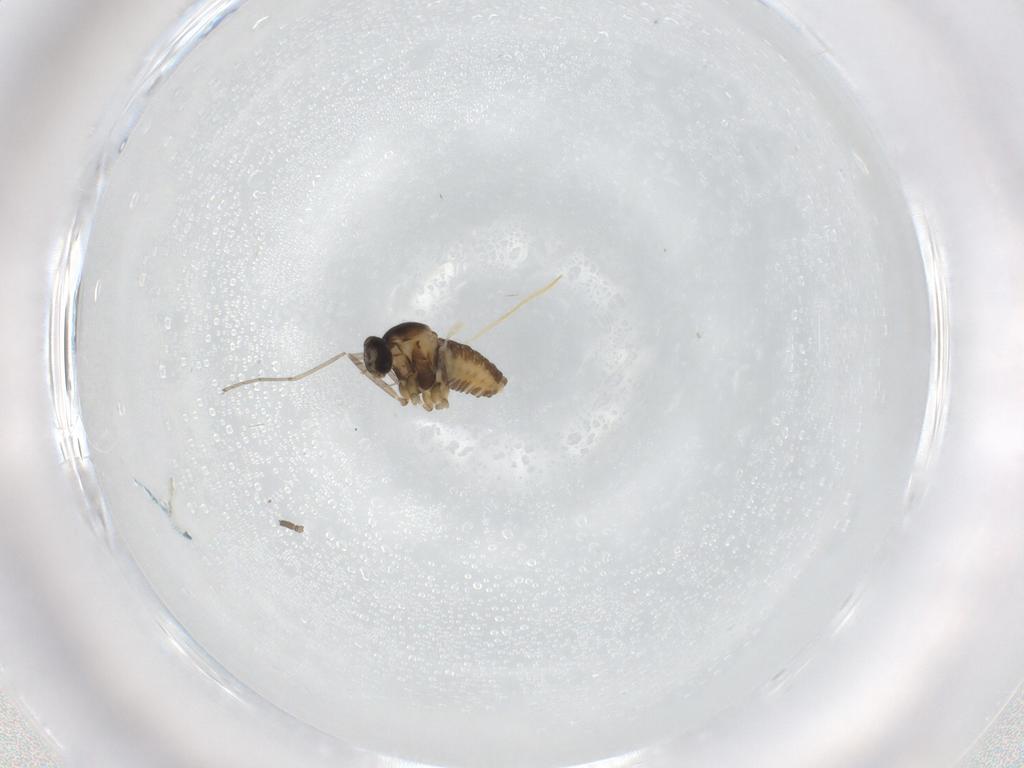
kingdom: Animalia
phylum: Arthropoda
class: Insecta
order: Diptera
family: Cecidomyiidae
